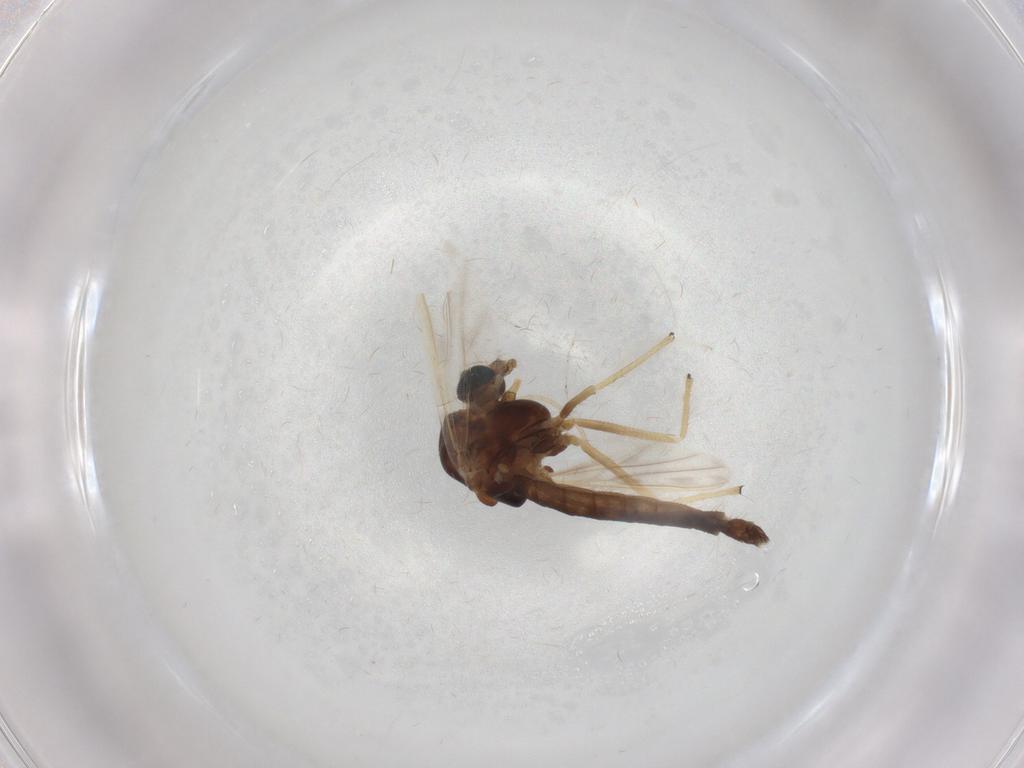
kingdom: Animalia
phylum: Arthropoda
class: Insecta
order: Diptera
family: Chironomidae
